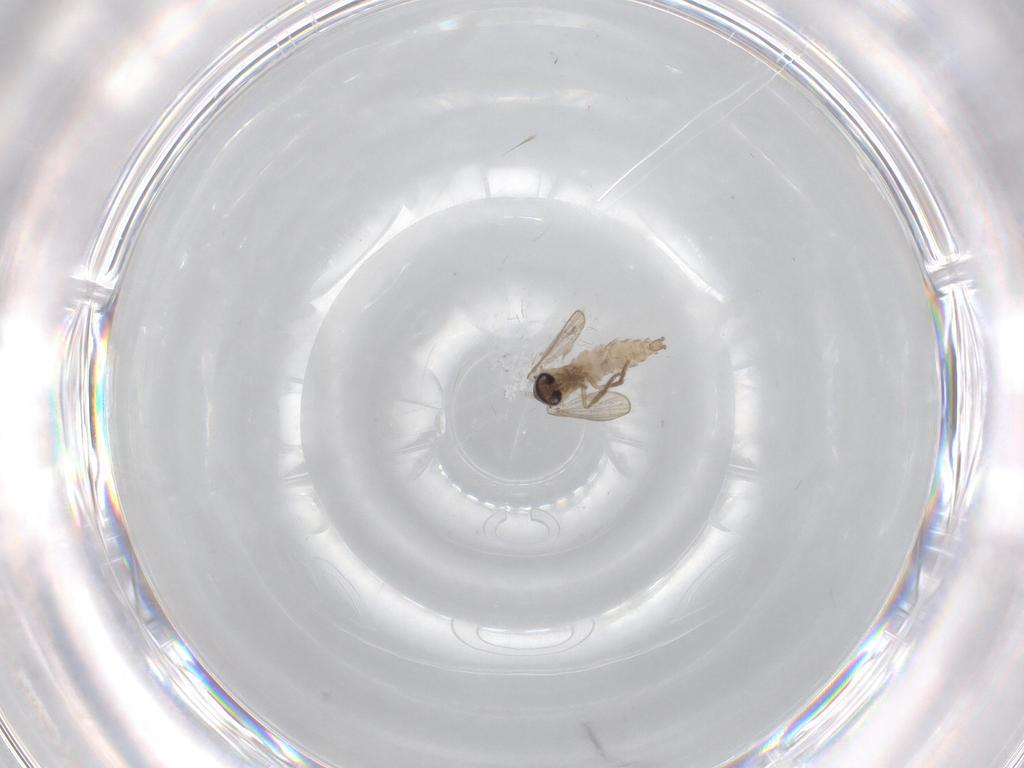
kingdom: Animalia
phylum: Arthropoda
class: Insecta
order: Diptera
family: Psychodidae
